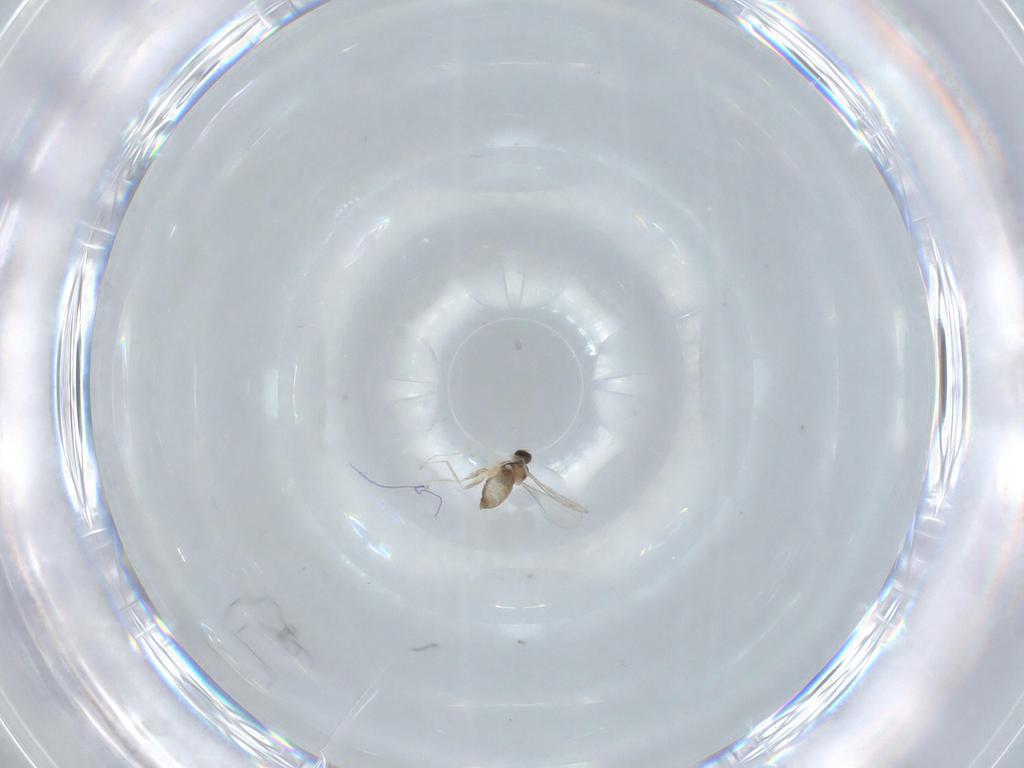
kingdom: Animalia
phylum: Arthropoda
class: Insecta
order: Diptera
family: Cecidomyiidae
